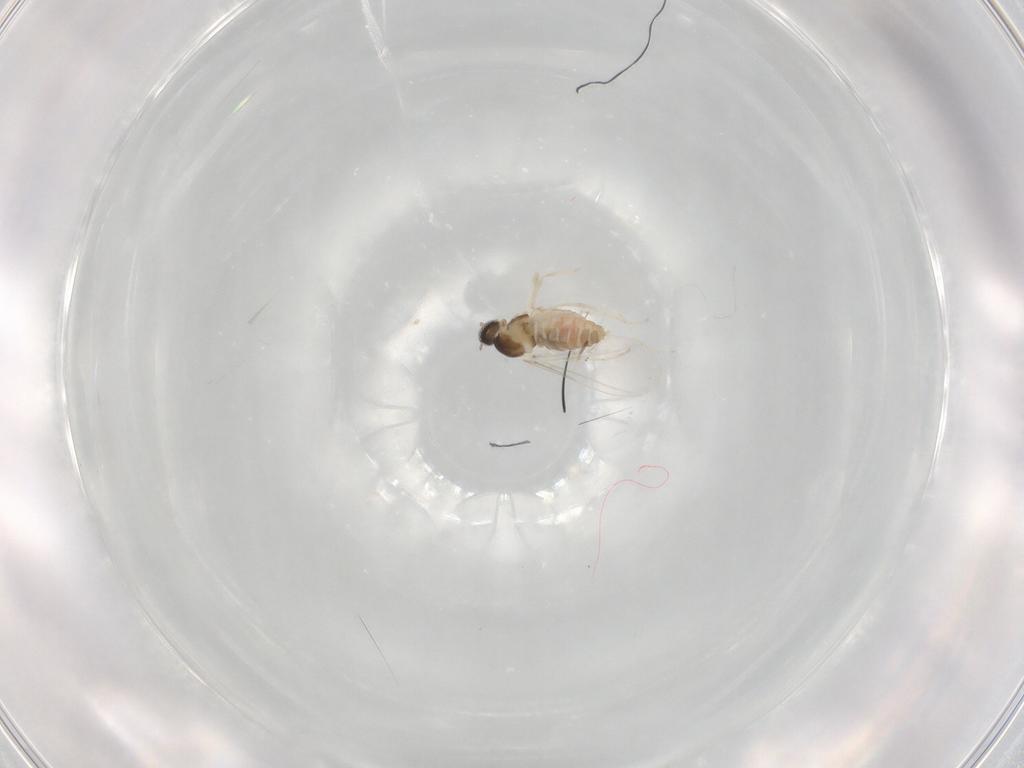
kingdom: Animalia
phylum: Arthropoda
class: Insecta
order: Diptera
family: Cecidomyiidae
